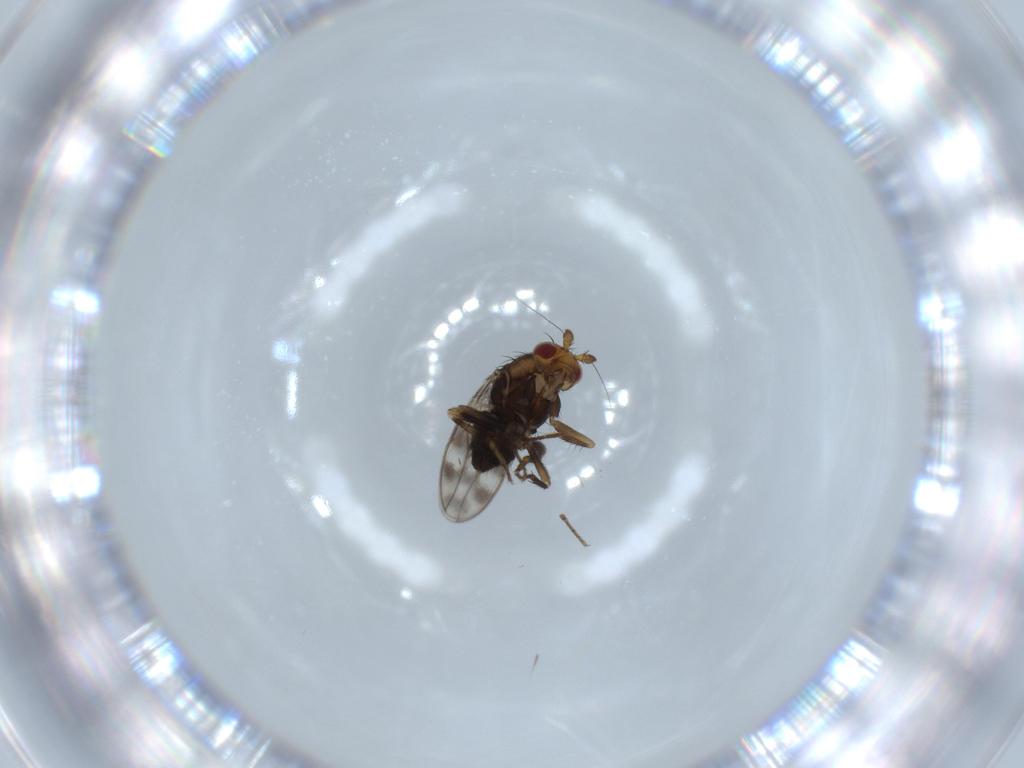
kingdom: Animalia
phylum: Arthropoda
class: Insecta
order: Diptera
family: Sphaeroceridae
